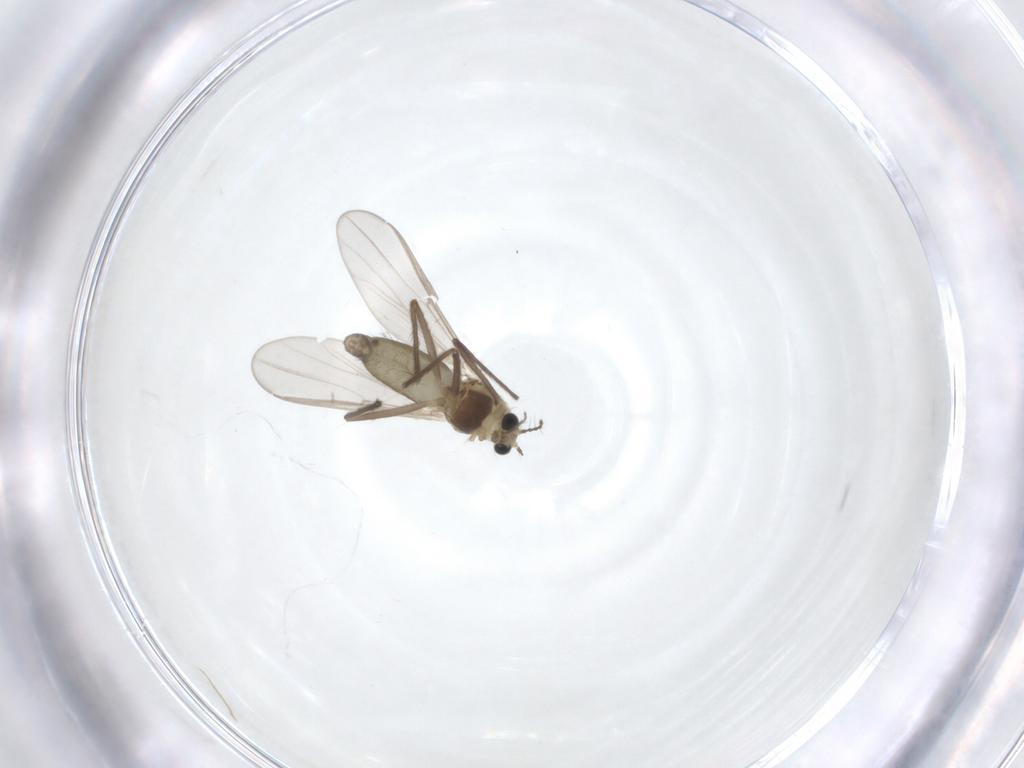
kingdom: Animalia
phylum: Arthropoda
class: Insecta
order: Diptera
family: Chironomidae
